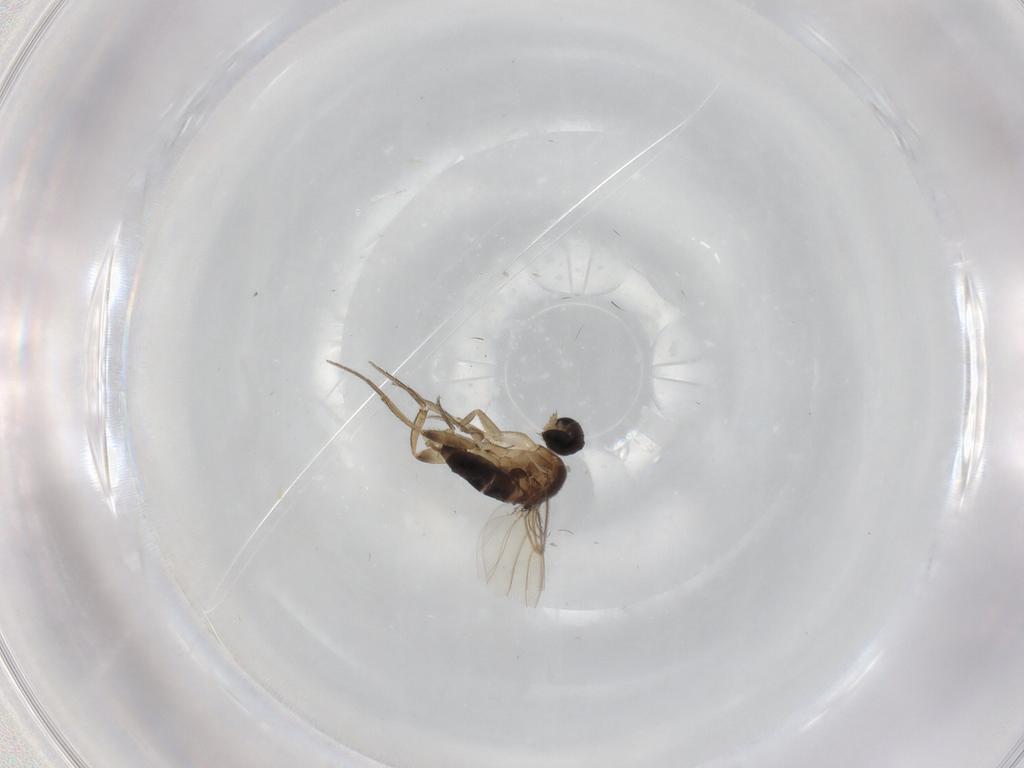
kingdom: Animalia
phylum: Arthropoda
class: Insecta
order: Diptera
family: Phoridae
